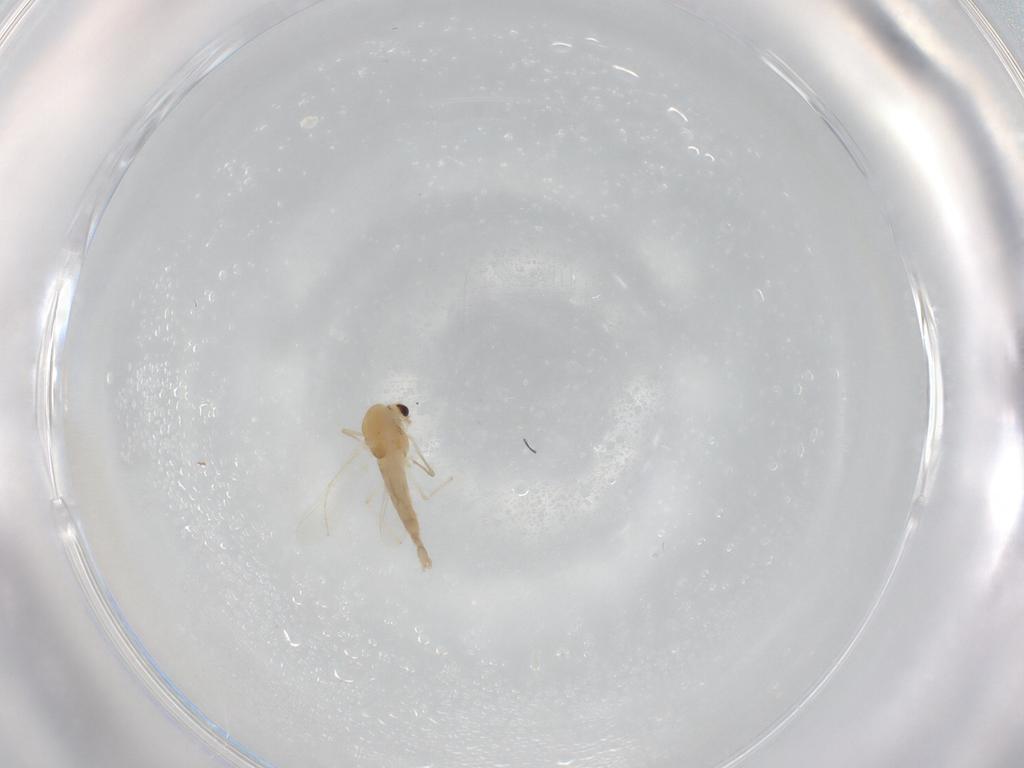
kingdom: Animalia
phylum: Arthropoda
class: Insecta
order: Diptera
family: Chironomidae
